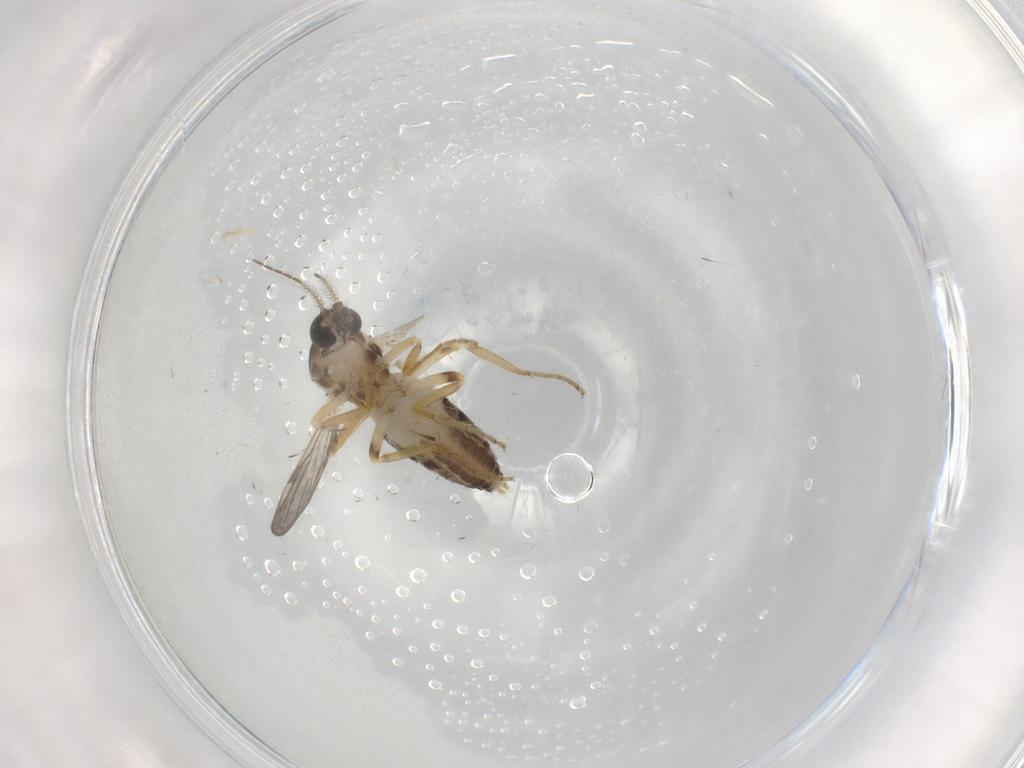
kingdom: Animalia
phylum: Arthropoda
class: Insecta
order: Diptera
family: Ceratopogonidae
